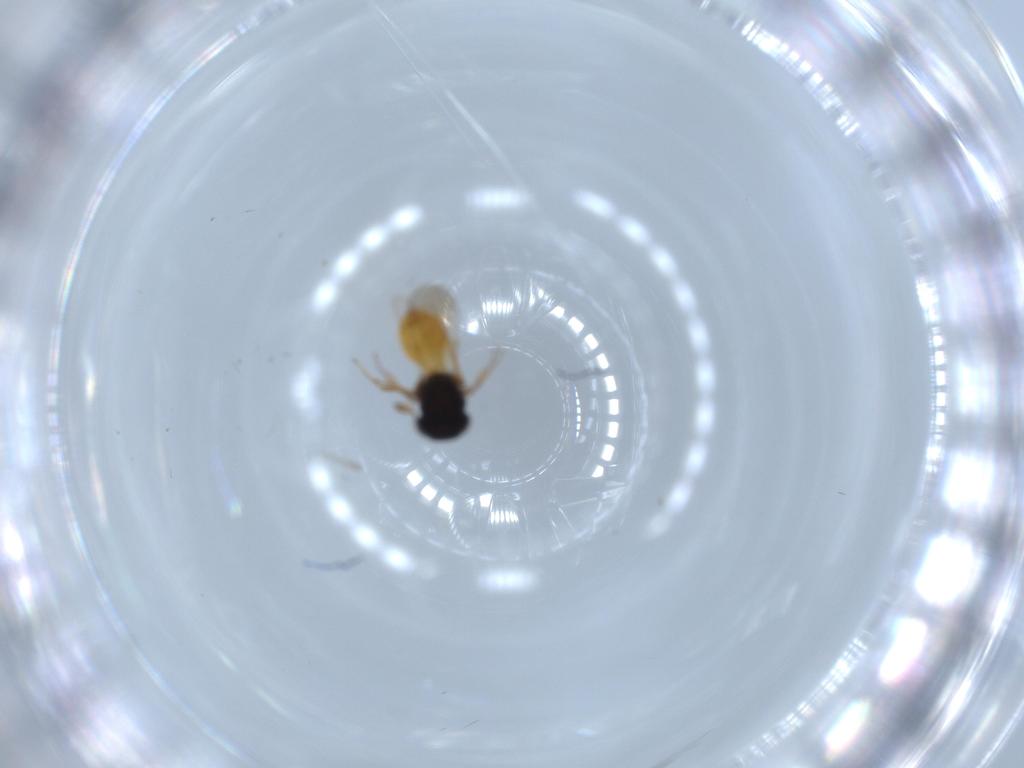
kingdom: Animalia
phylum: Arthropoda
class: Insecta
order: Hymenoptera
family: Scelionidae
